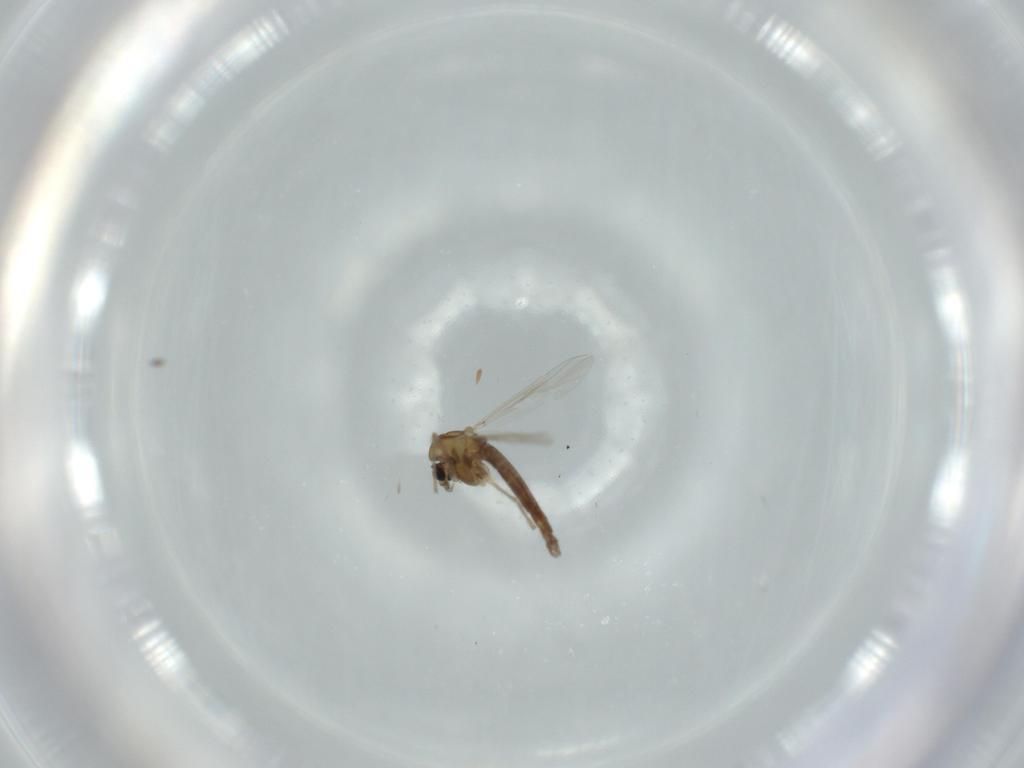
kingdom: Animalia
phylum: Arthropoda
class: Insecta
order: Diptera
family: Chironomidae
